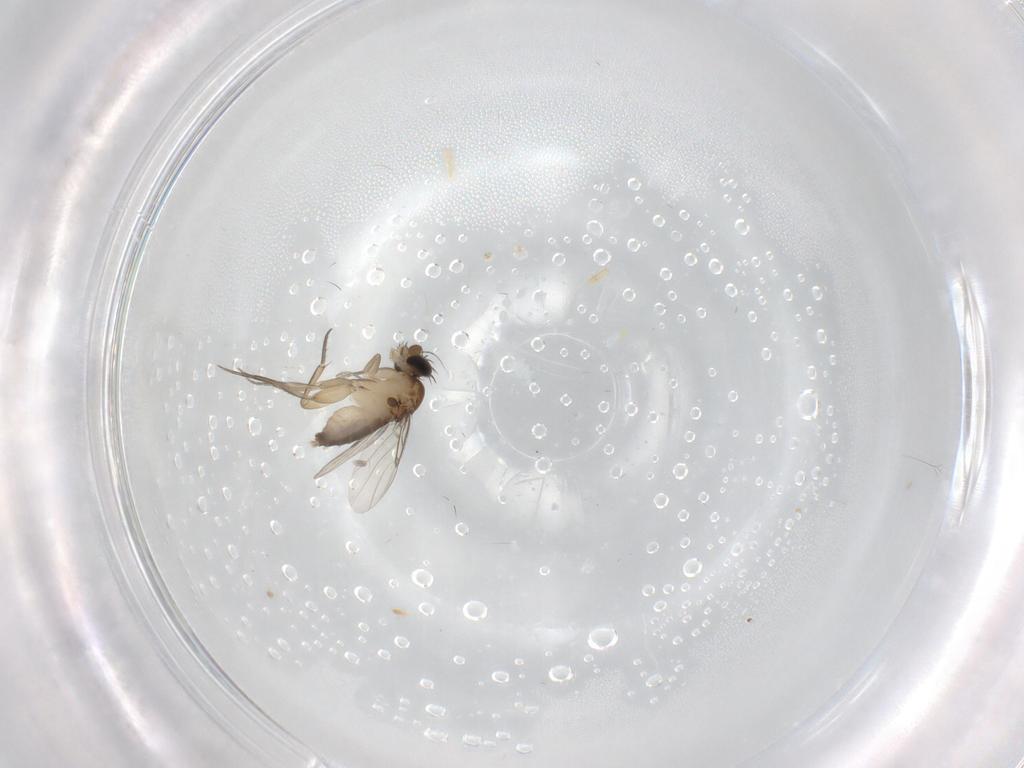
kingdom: Animalia
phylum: Arthropoda
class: Insecta
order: Diptera
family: Phoridae
